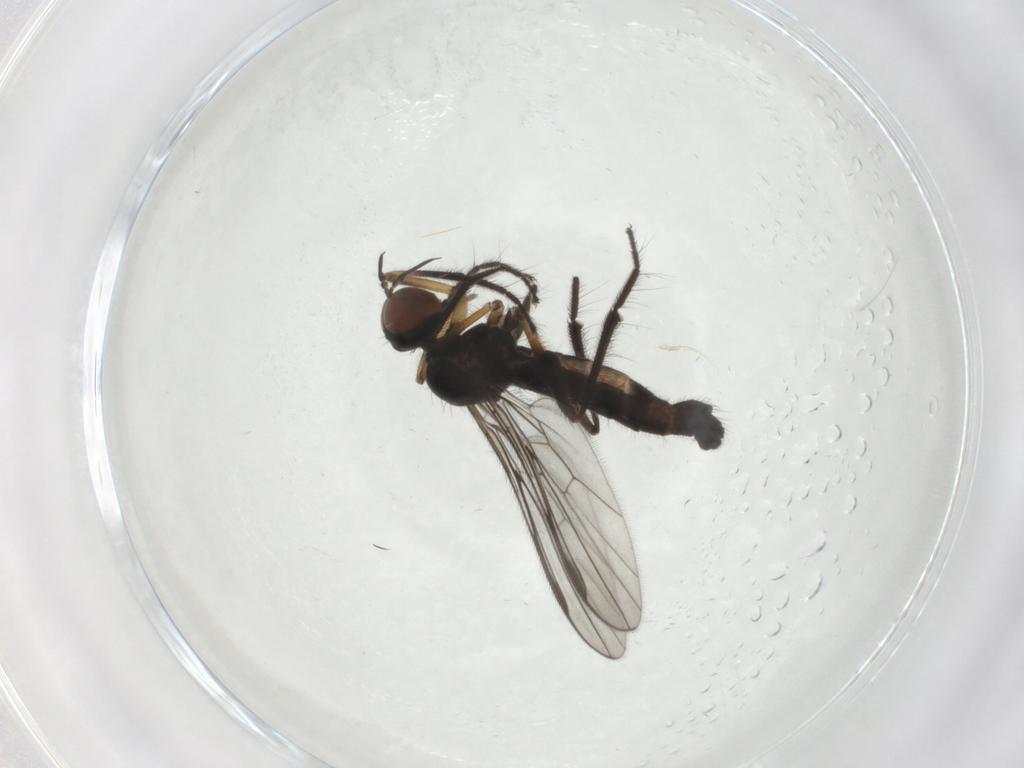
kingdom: Animalia
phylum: Arthropoda
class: Insecta
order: Diptera
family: Empididae
